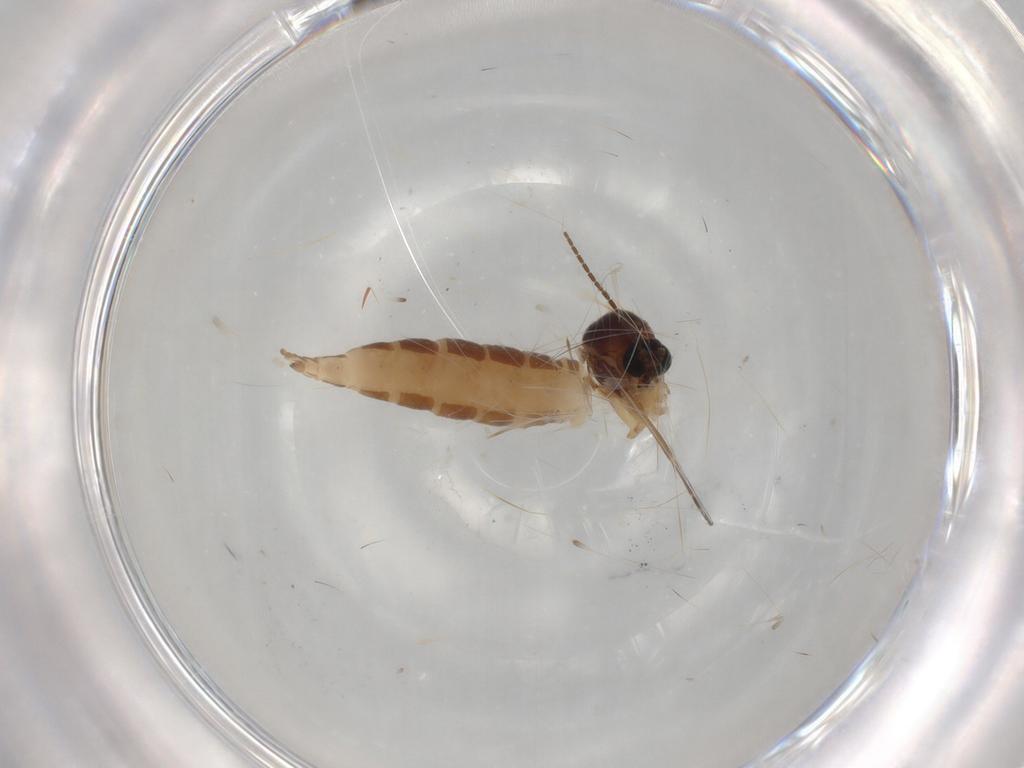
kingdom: Animalia
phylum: Arthropoda
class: Insecta
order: Diptera
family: Sciaridae
